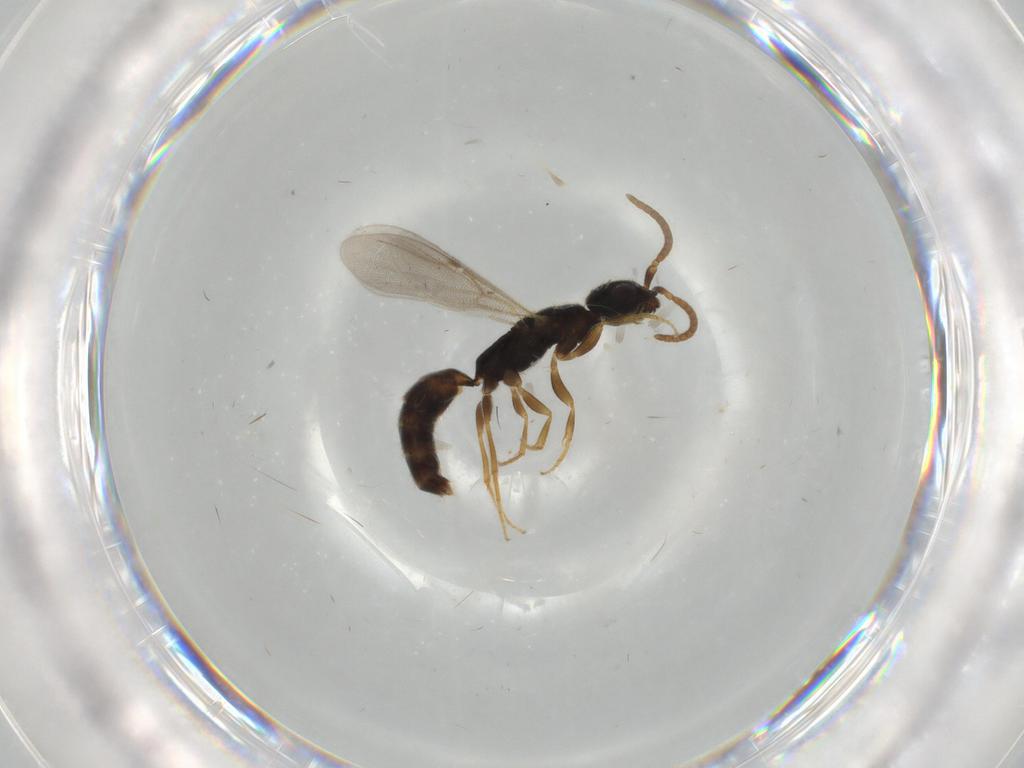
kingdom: Animalia
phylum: Arthropoda
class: Insecta
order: Hymenoptera
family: Bethylidae
